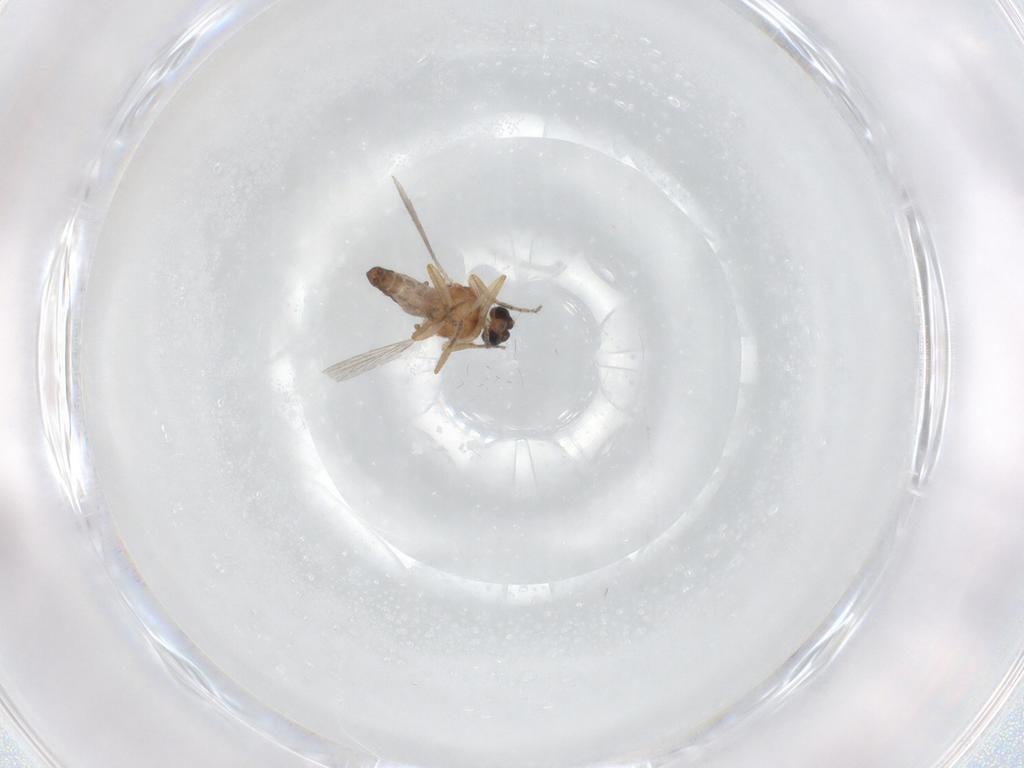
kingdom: Animalia
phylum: Arthropoda
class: Insecta
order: Diptera
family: Ceratopogonidae
